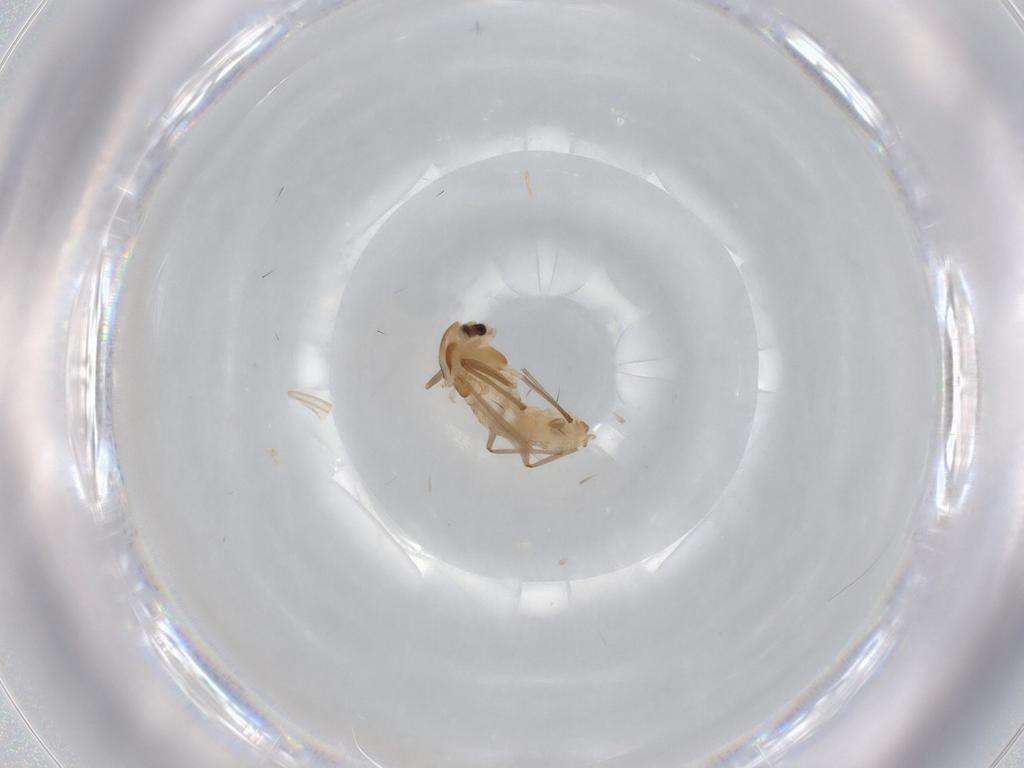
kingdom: Animalia
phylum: Arthropoda
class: Insecta
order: Diptera
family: Chironomidae
